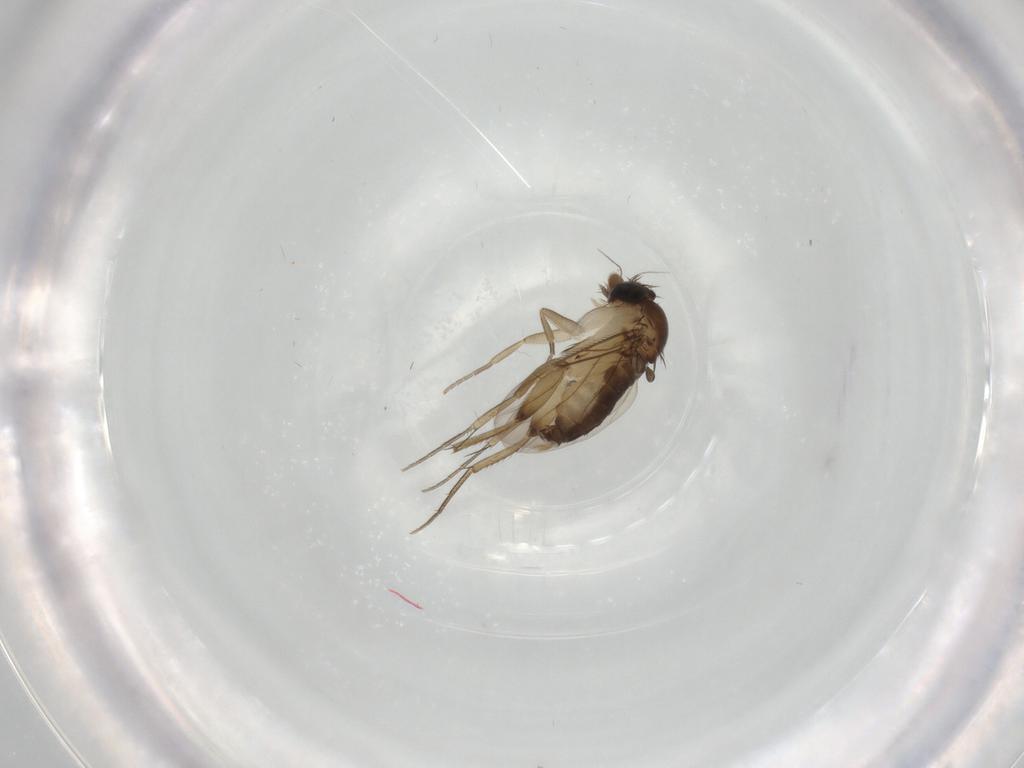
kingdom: Animalia
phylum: Arthropoda
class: Insecta
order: Diptera
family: Phoridae
